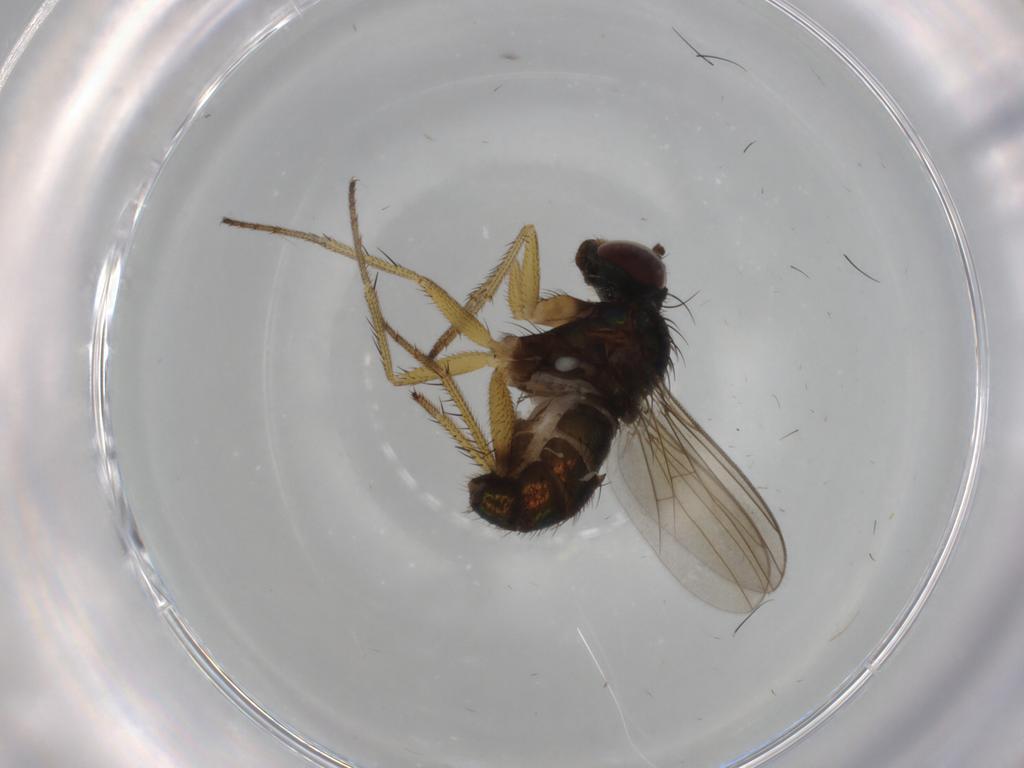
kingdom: Animalia
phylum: Arthropoda
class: Insecta
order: Diptera
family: Dolichopodidae
